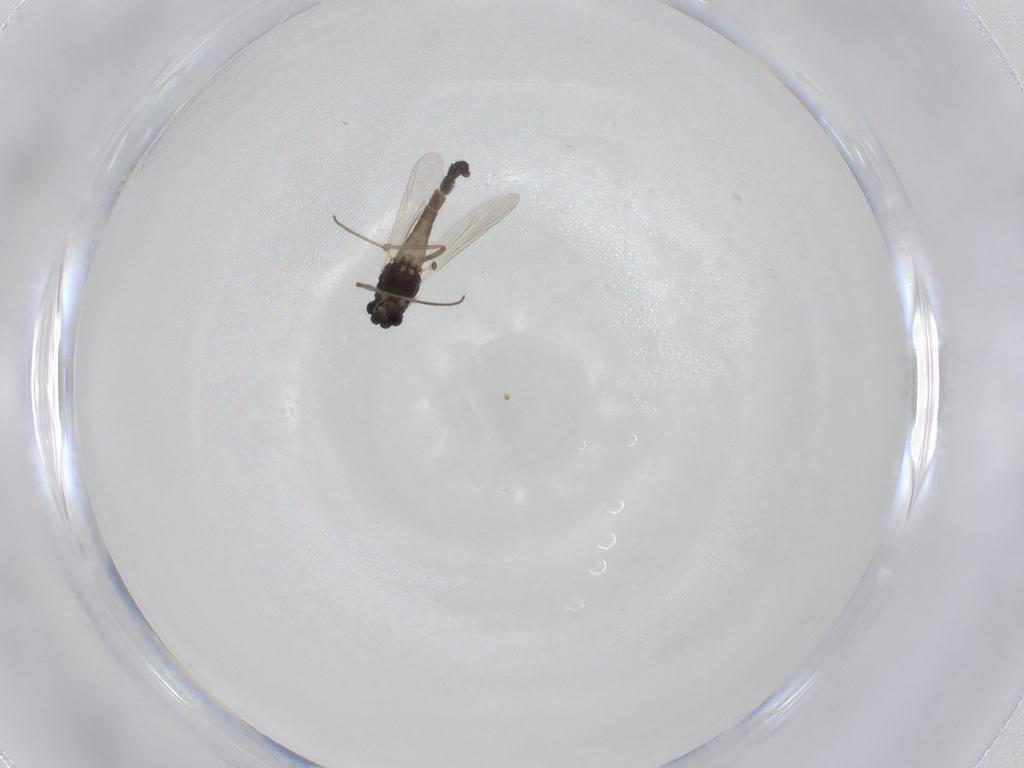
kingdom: Animalia
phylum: Arthropoda
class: Insecta
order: Diptera
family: Chironomidae
